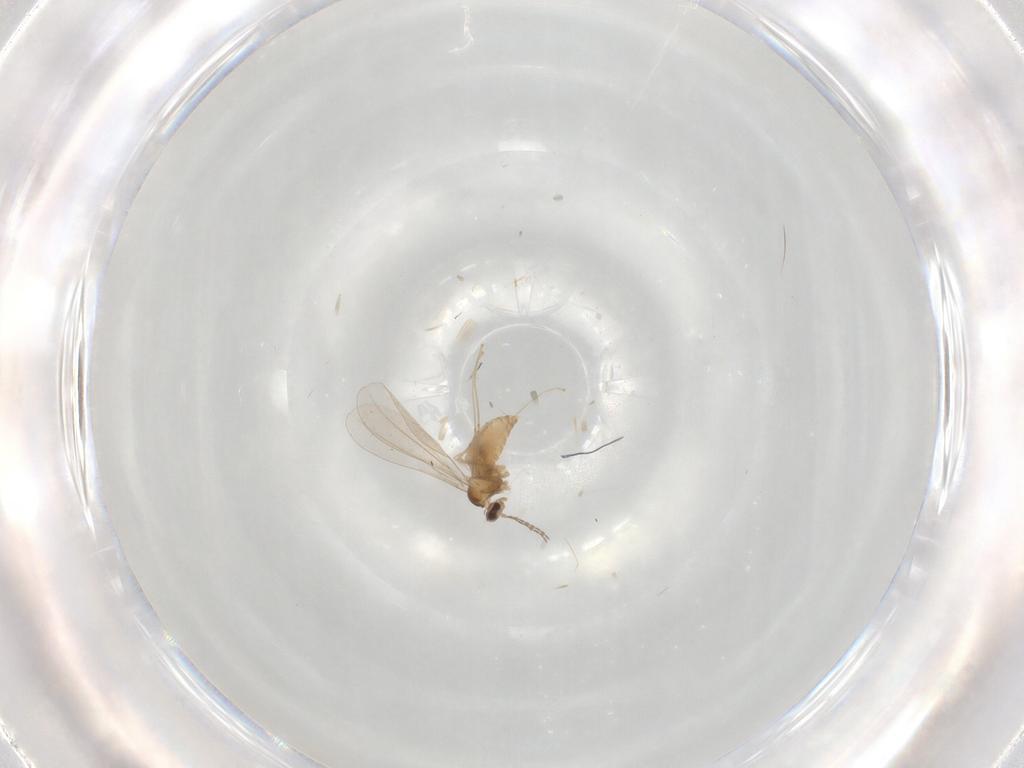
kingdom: Animalia
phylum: Arthropoda
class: Insecta
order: Diptera
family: Cecidomyiidae
